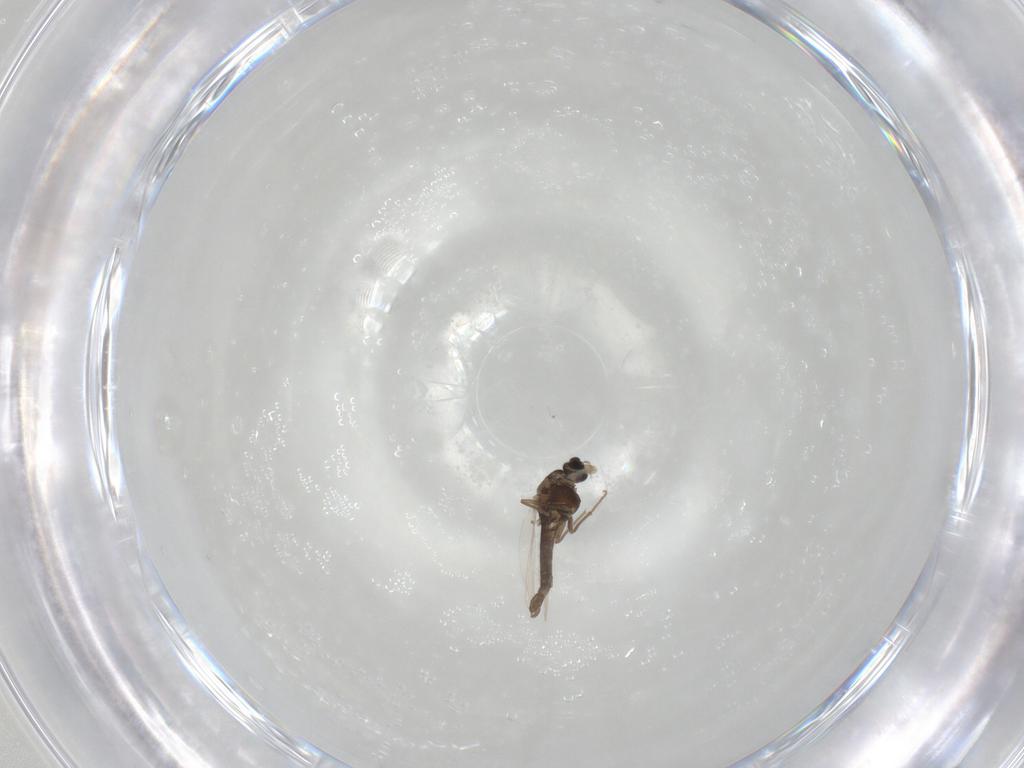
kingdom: Animalia
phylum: Arthropoda
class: Insecta
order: Diptera
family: Chironomidae
